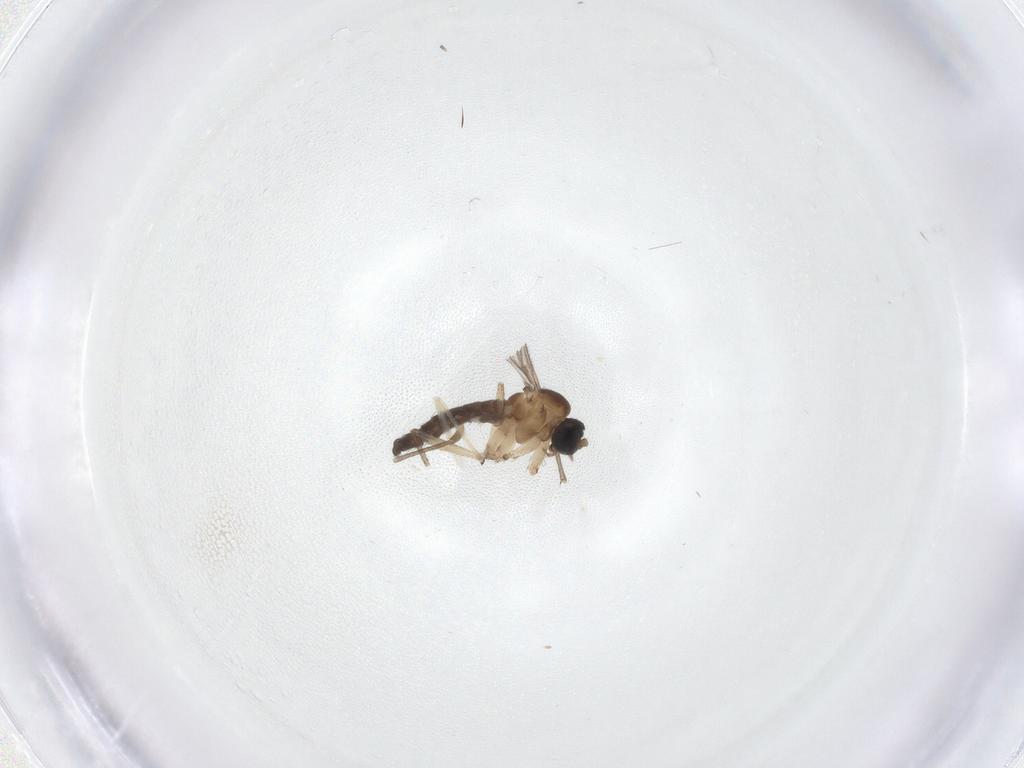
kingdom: Animalia
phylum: Arthropoda
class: Insecta
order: Diptera
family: Sciaridae
